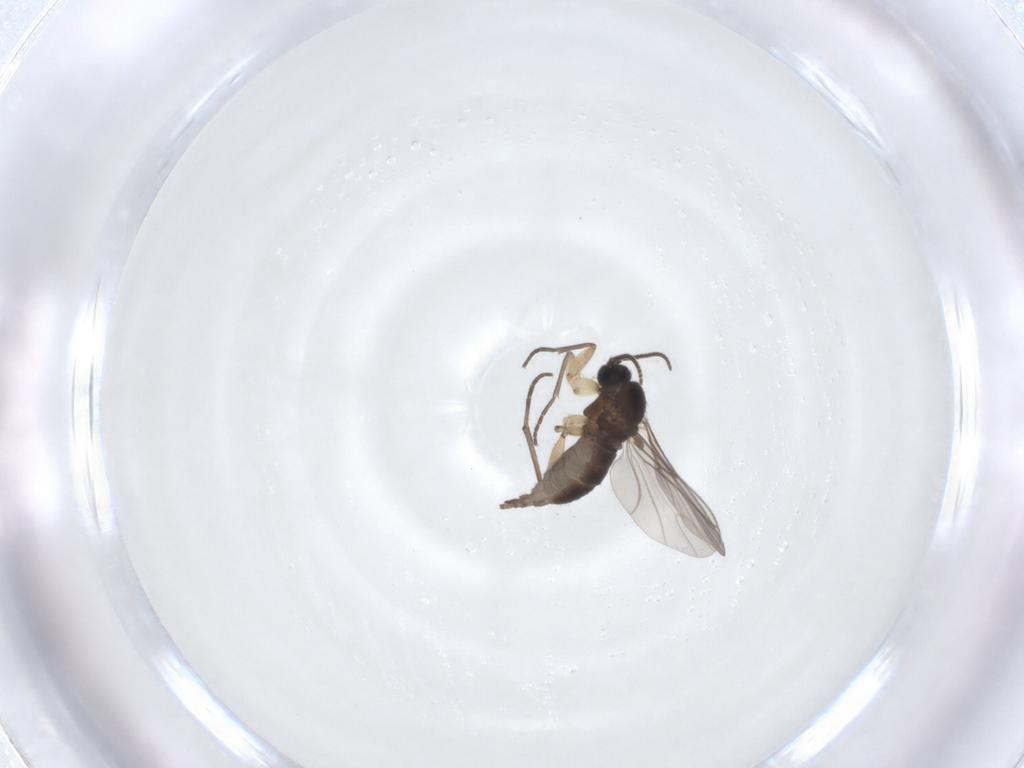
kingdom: Animalia
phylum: Arthropoda
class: Insecta
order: Diptera
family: Sciaridae
